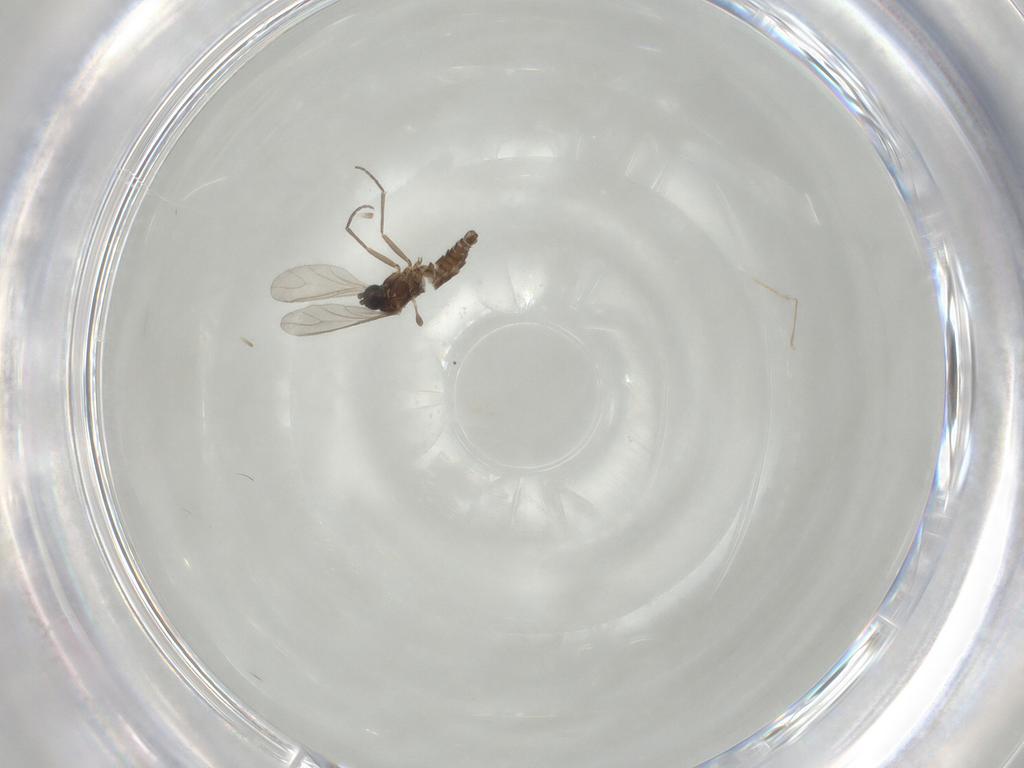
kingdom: Animalia
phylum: Arthropoda
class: Insecta
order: Diptera
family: Sciaridae
